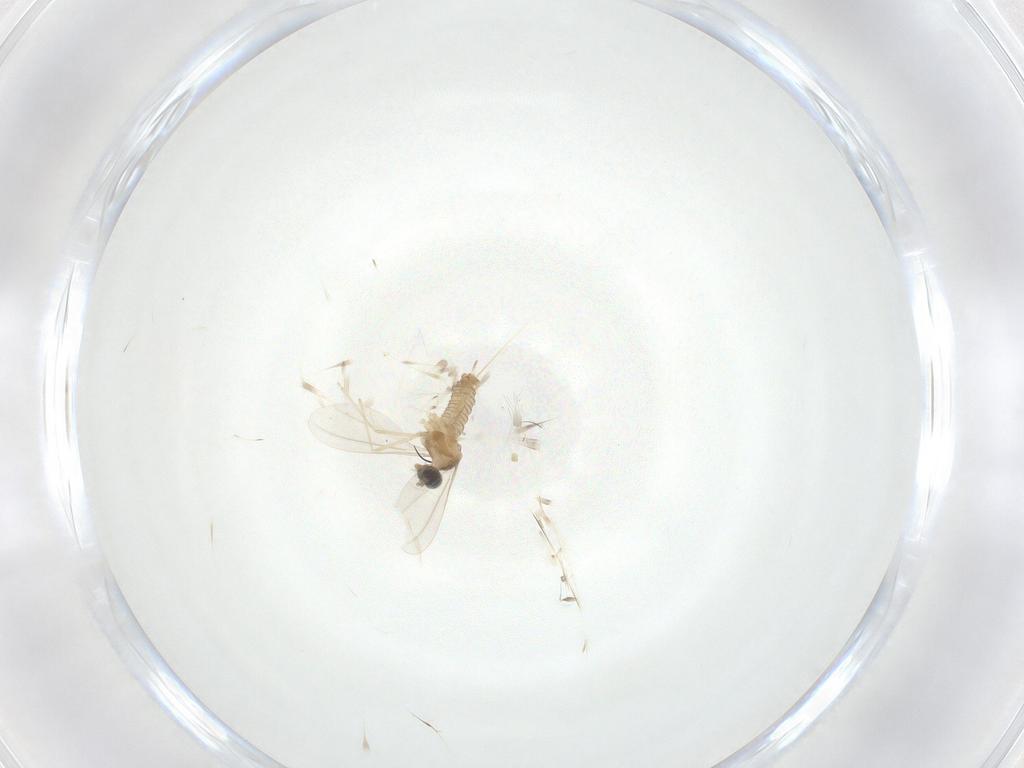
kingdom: Animalia
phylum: Arthropoda
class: Insecta
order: Diptera
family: Cecidomyiidae
